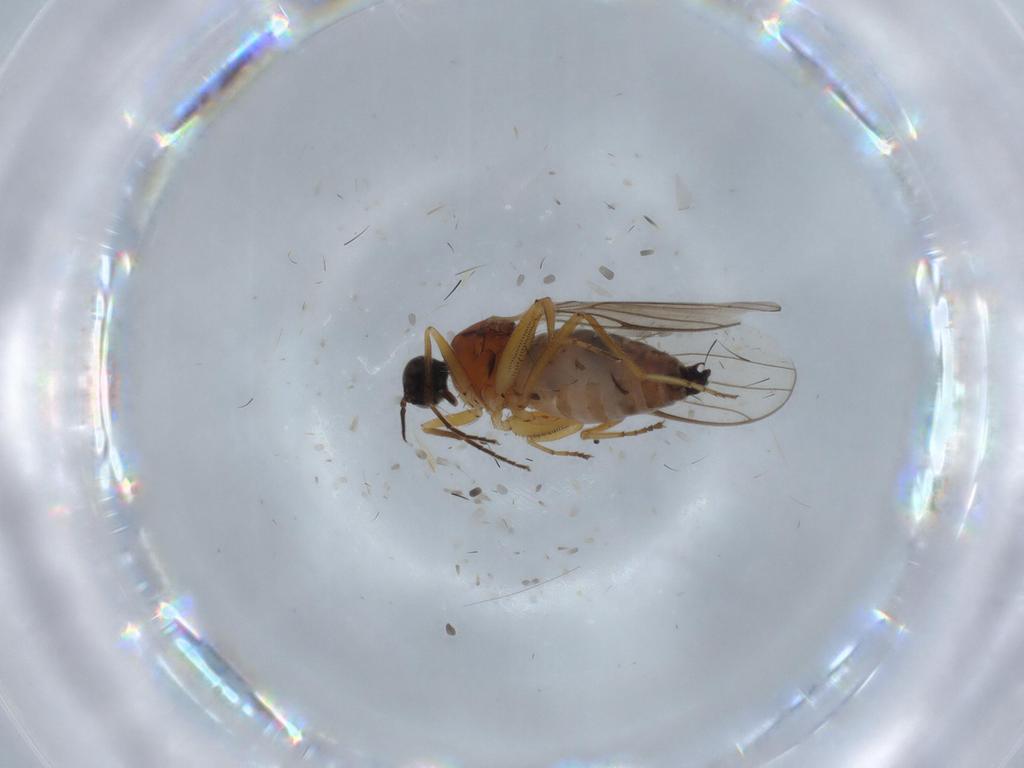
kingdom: Animalia
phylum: Arthropoda
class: Insecta
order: Diptera
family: Hybotidae
